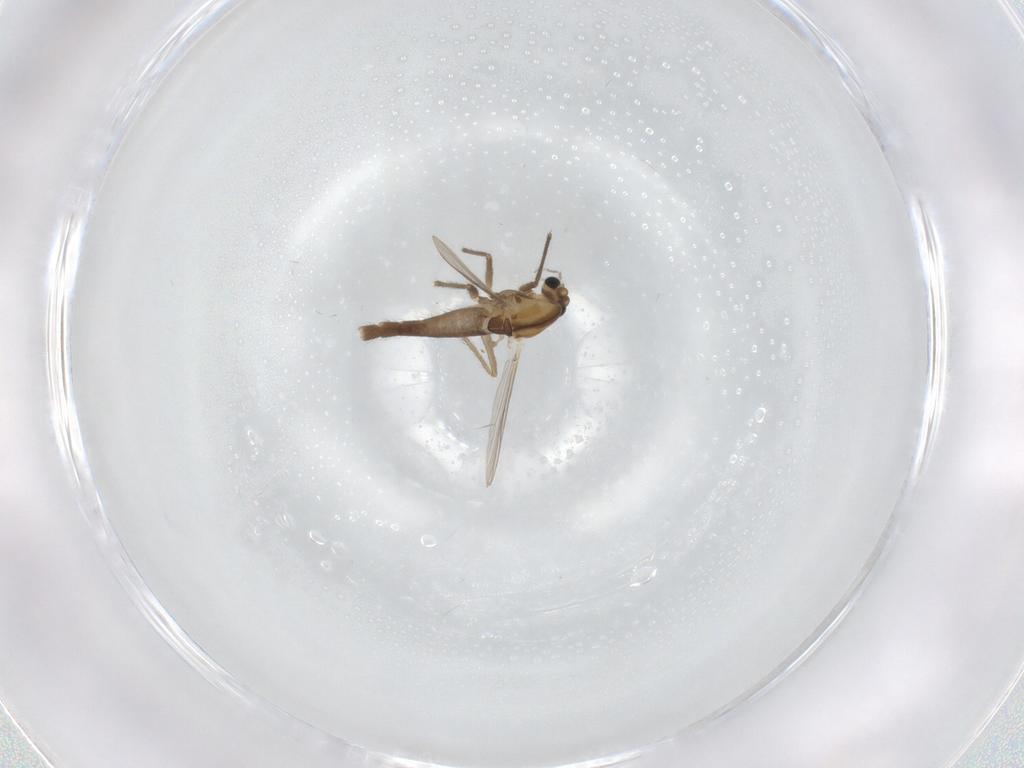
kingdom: Animalia
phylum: Arthropoda
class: Insecta
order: Diptera
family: Chironomidae
